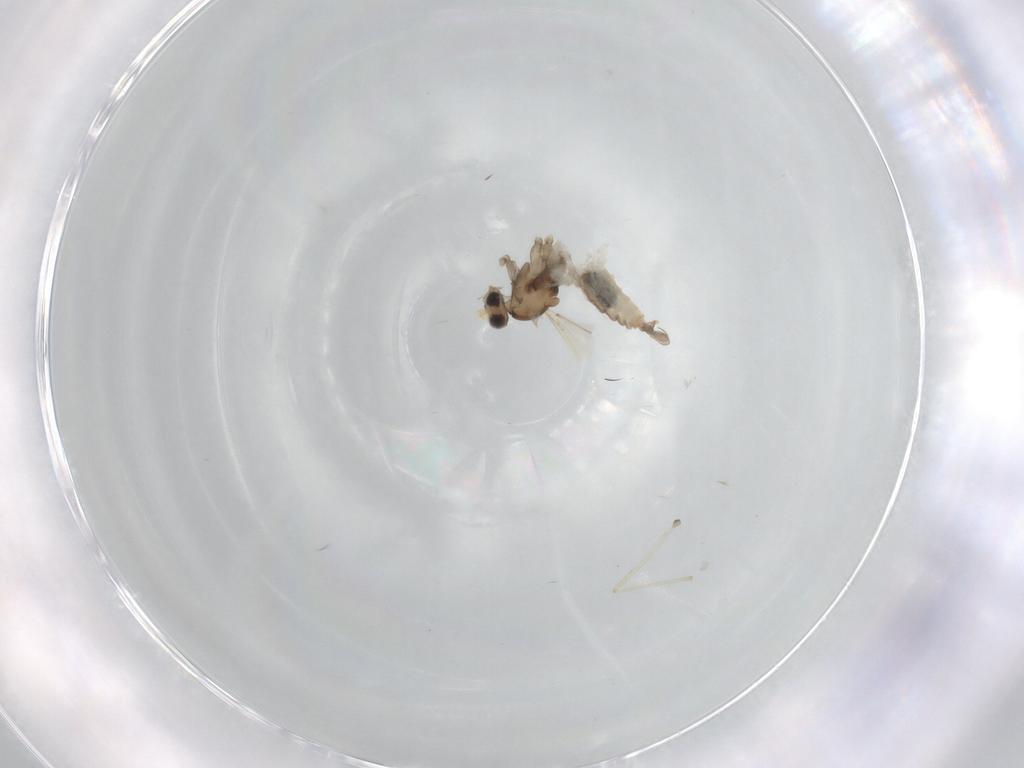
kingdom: Animalia
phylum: Arthropoda
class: Insecta
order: Diptera
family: Cecidomyiidae
